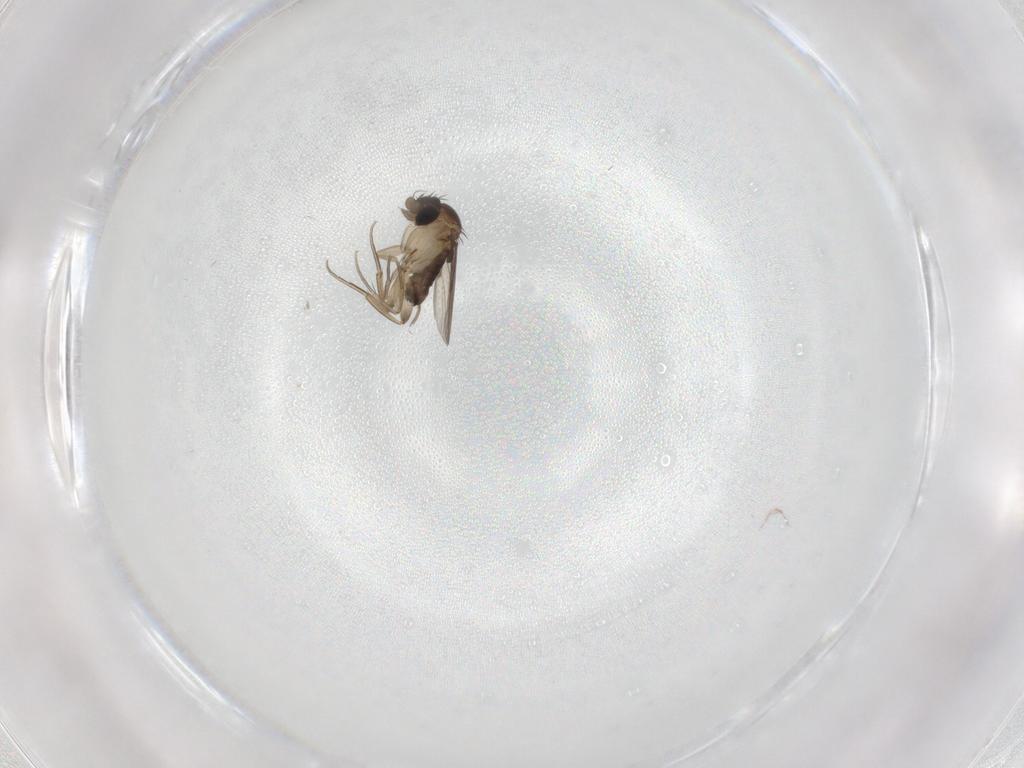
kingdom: Animalia
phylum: Arthropoda
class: Insecta
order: Diptera
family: Phoridae
